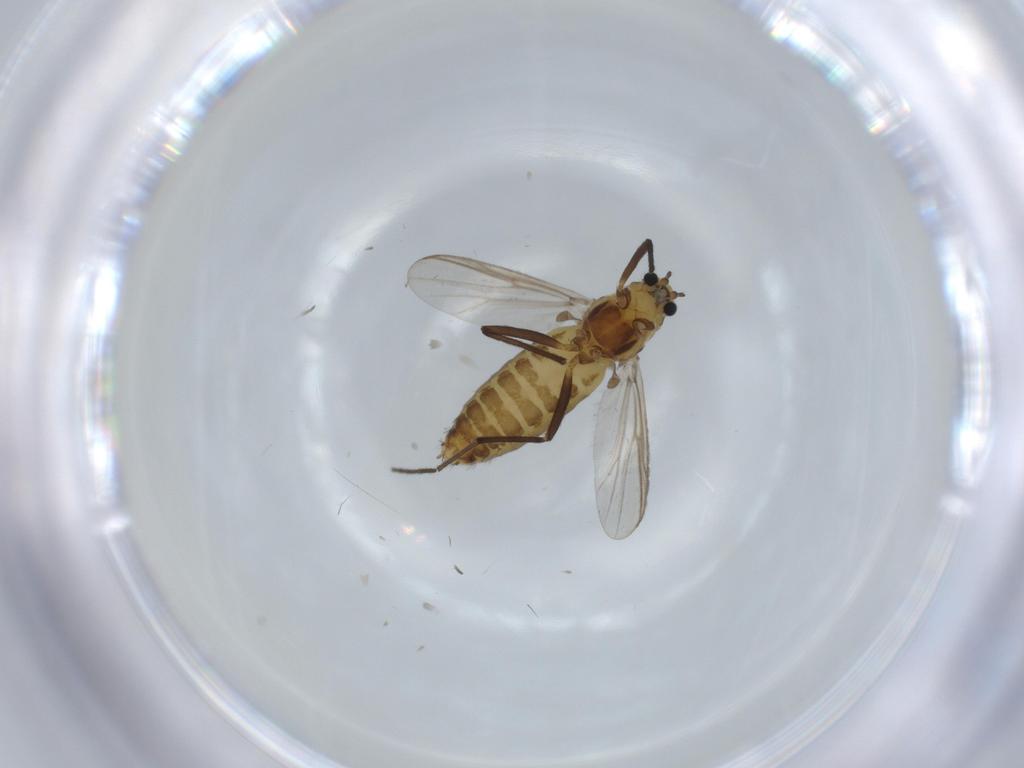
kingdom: Animalia
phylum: Arthropoda
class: Insecta
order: Diptera
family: Chironomidae
